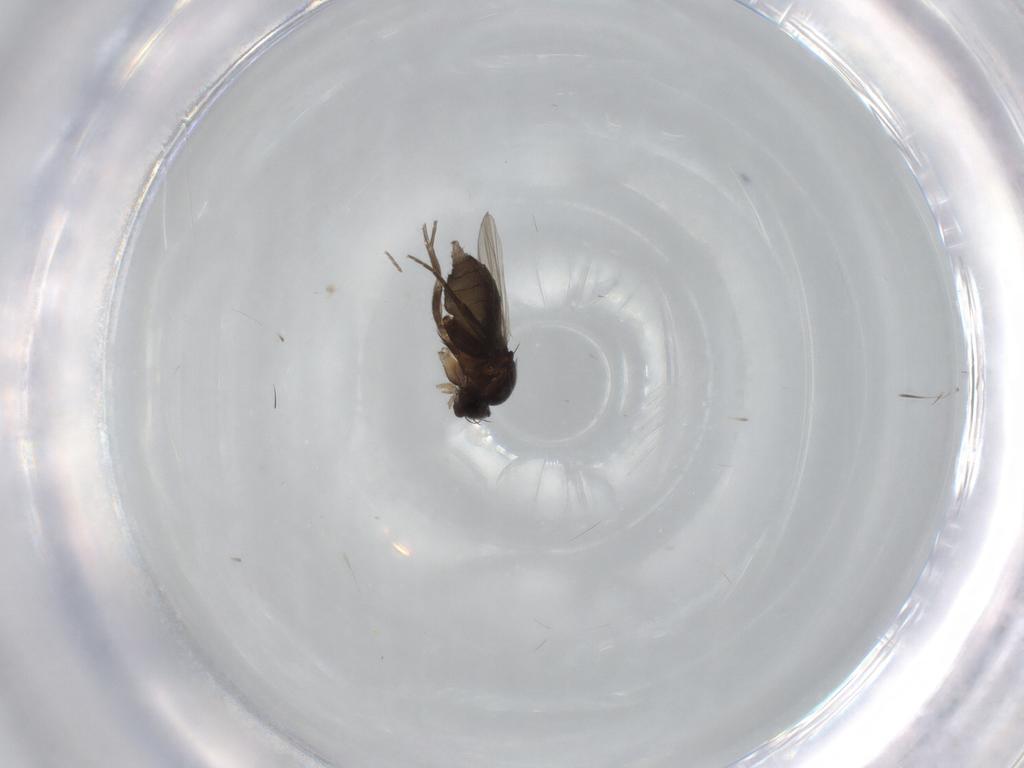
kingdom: Animalia
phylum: Arthropoda
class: Insecta
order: Diptera
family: Phoridae
